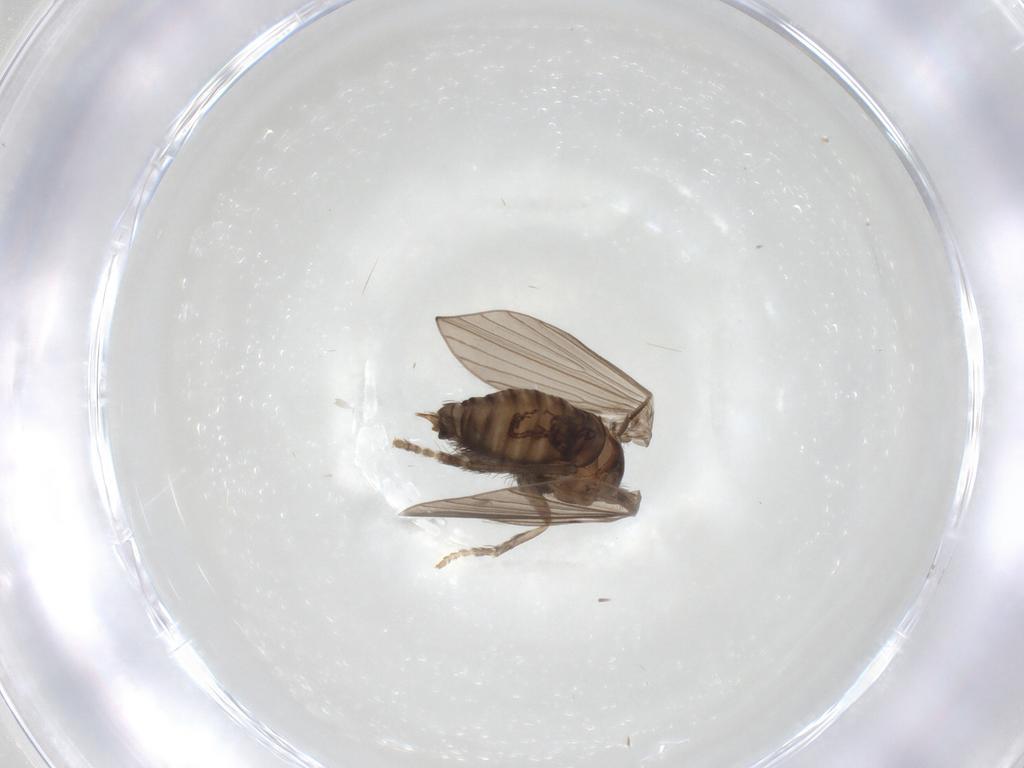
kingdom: Animalia
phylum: Arthropoda
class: Insecta
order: Diptera
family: Psychodidae
